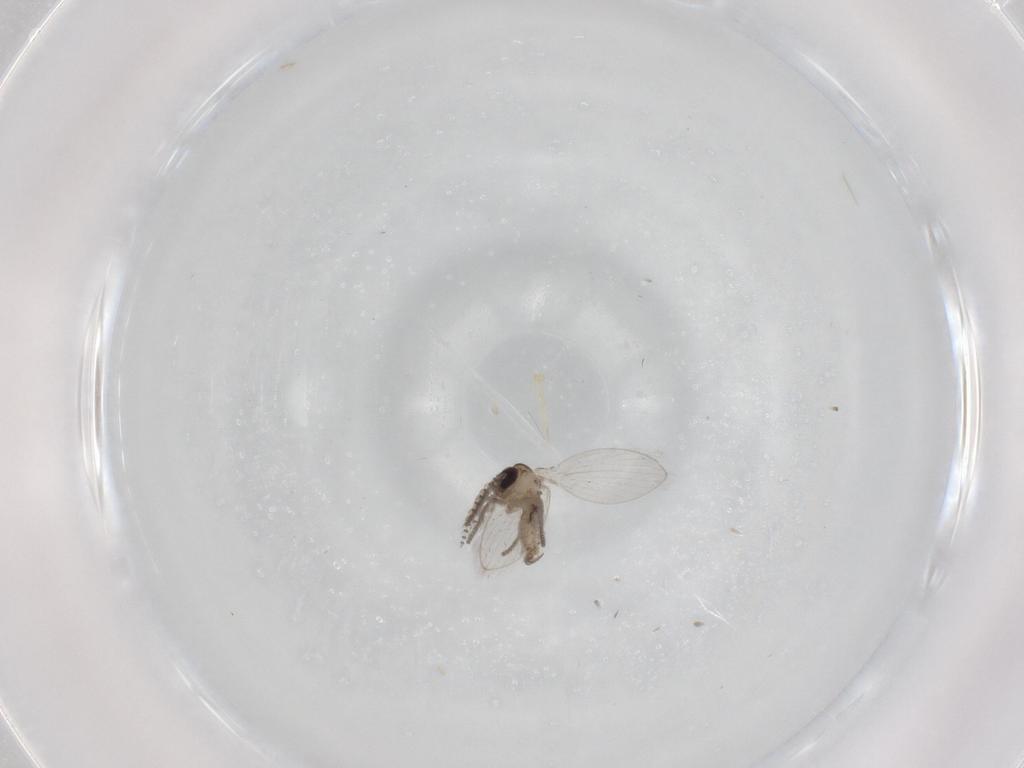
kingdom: Animalia
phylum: Arthropoda
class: Insecta
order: Diptera
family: Psychodidae
